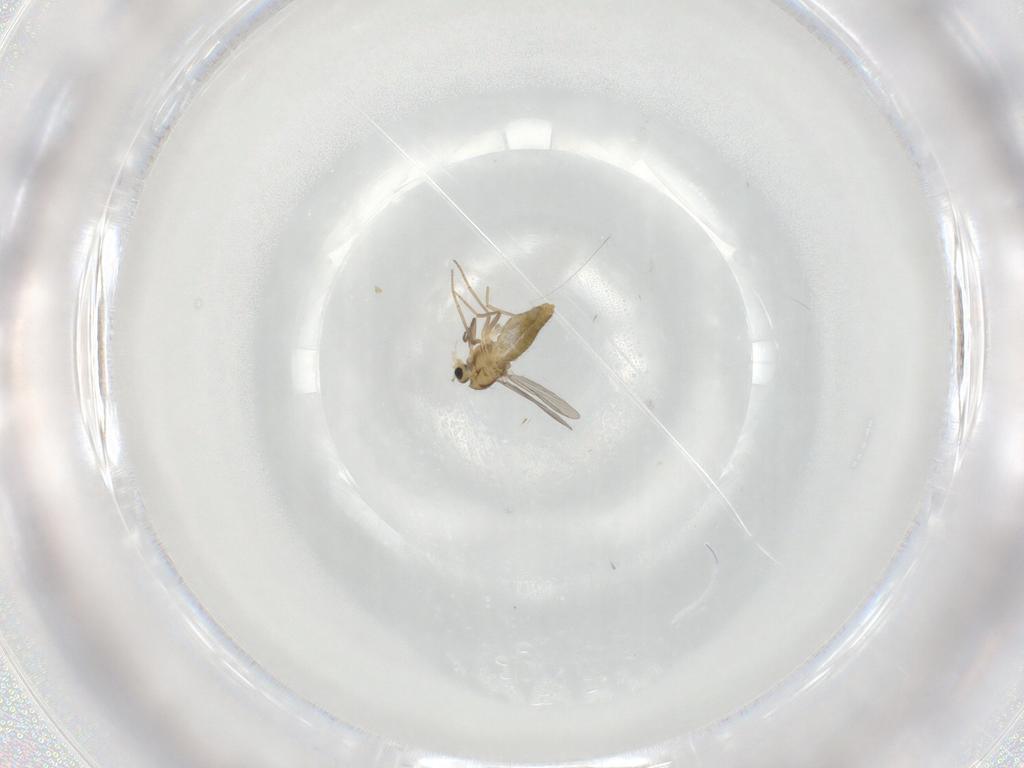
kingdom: Animalia
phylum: Arthropoda
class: Insecta
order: Diptera
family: Chironomidae
